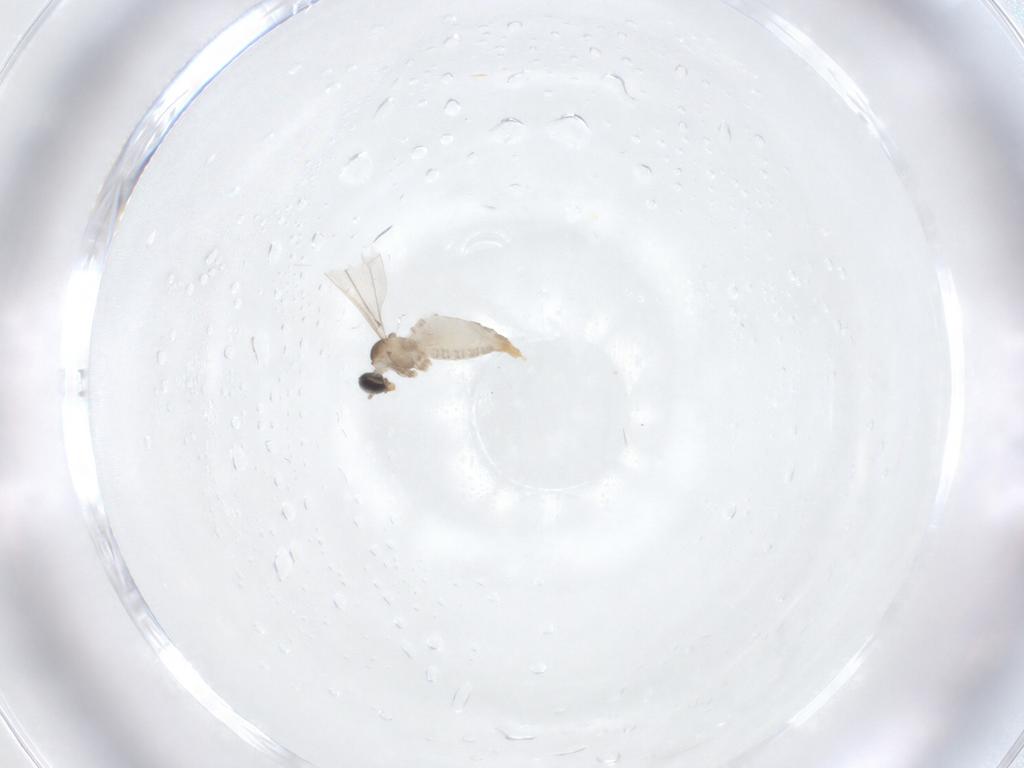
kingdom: Animalia
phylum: Arthropoda
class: Insecta
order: Diptera
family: Cecidomyiidae
